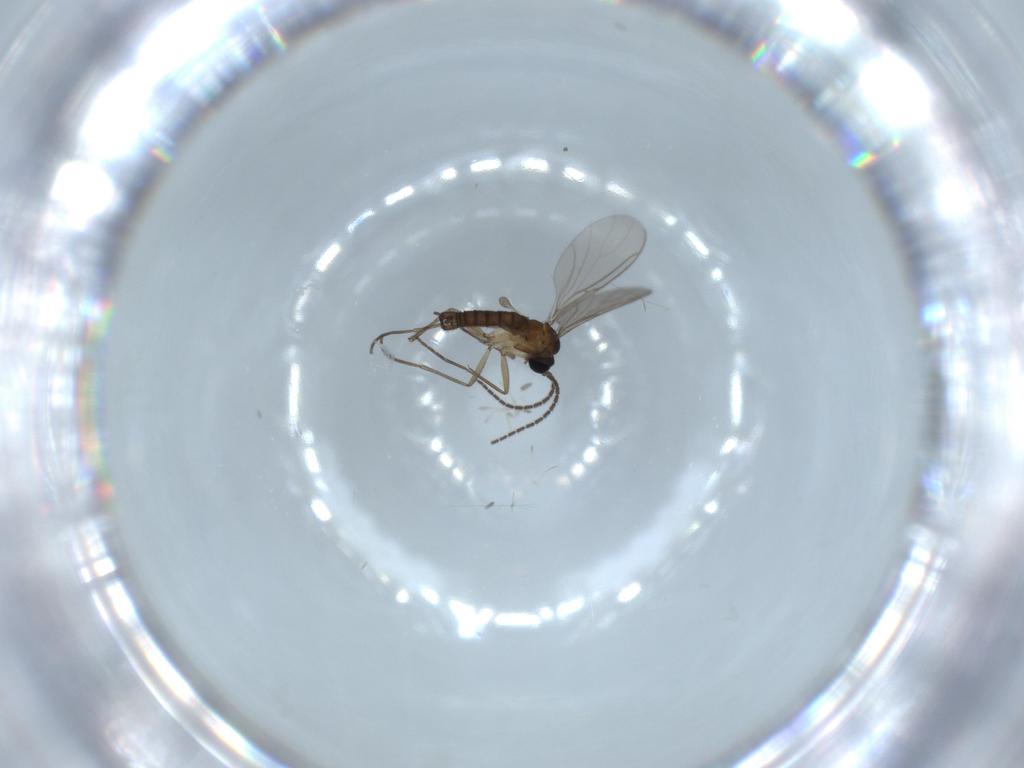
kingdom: Animalia
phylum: Arthropoda
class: Insecta
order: Diptera
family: Sciaridae
